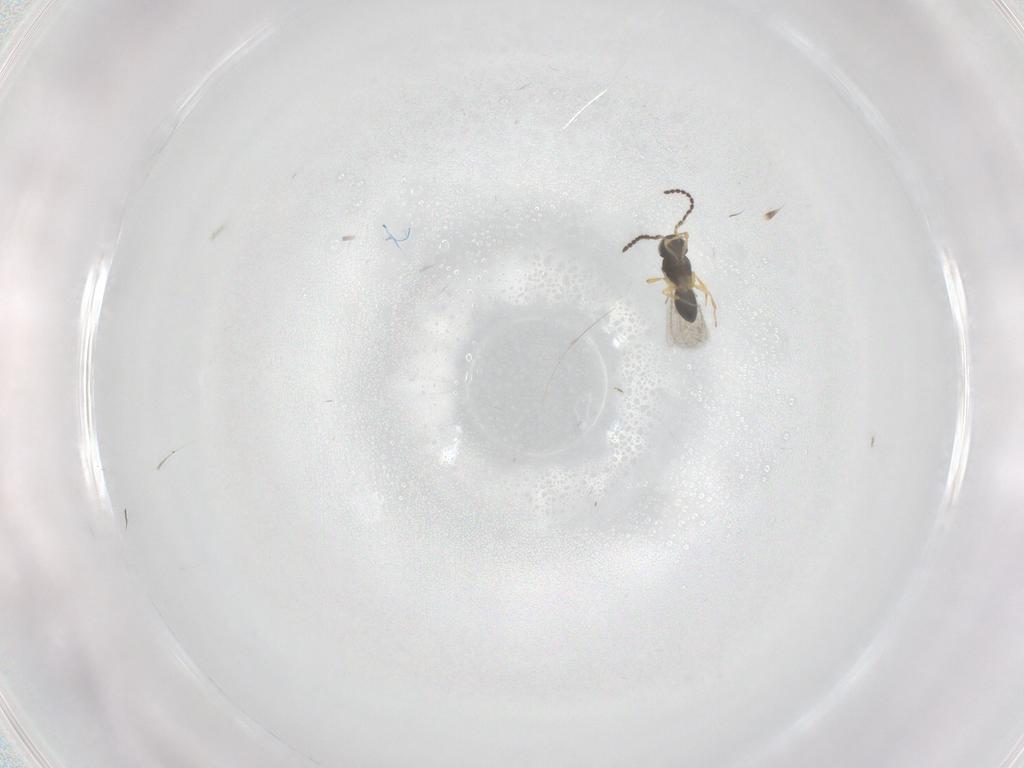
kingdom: Animalia
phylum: Arthropoda
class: Insecta
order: Hymenoptera
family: Scelionidae
